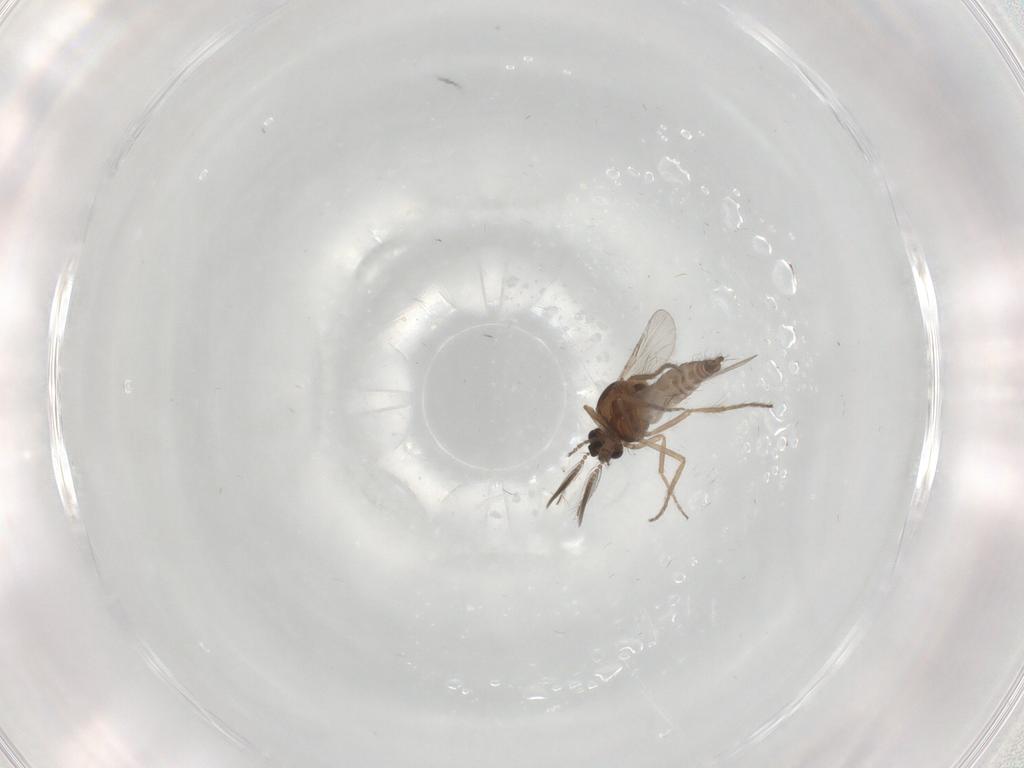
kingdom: Animalia
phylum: Arthropoda
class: Insecta
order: Diptera
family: Ceratopogonidae
